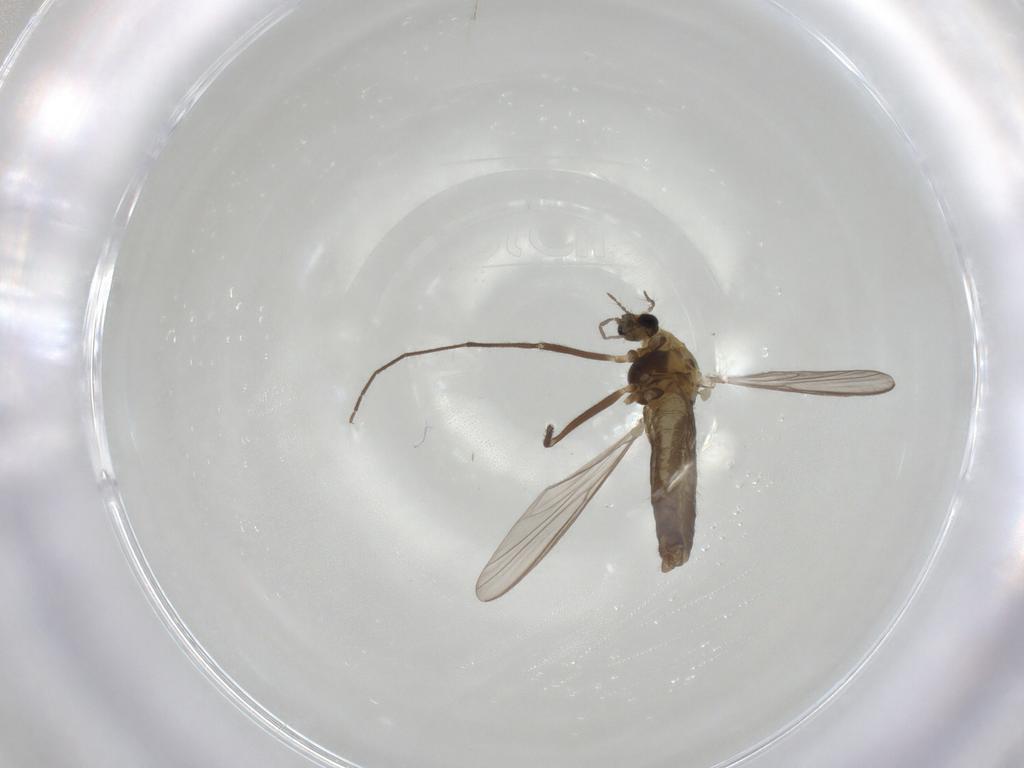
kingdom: Animalia
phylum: Arthropoda
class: Insecta
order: Diptera
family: Chironomidae
